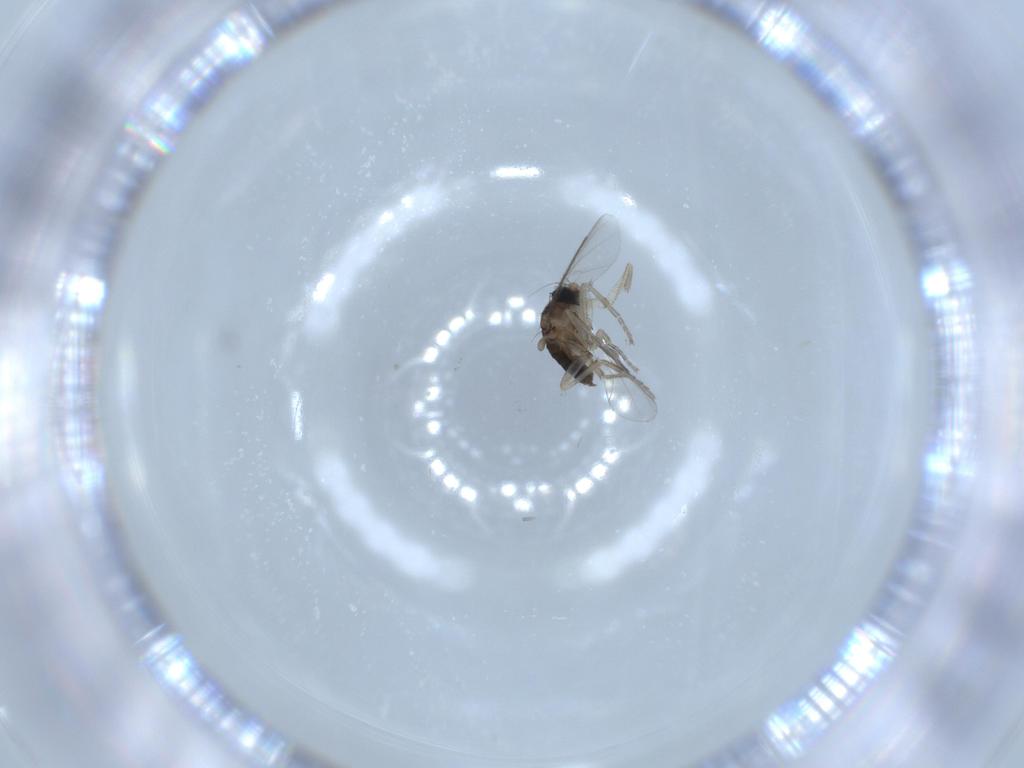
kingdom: Animalia
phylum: Arthropoda
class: Insecta
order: Diptera
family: Phoridae
